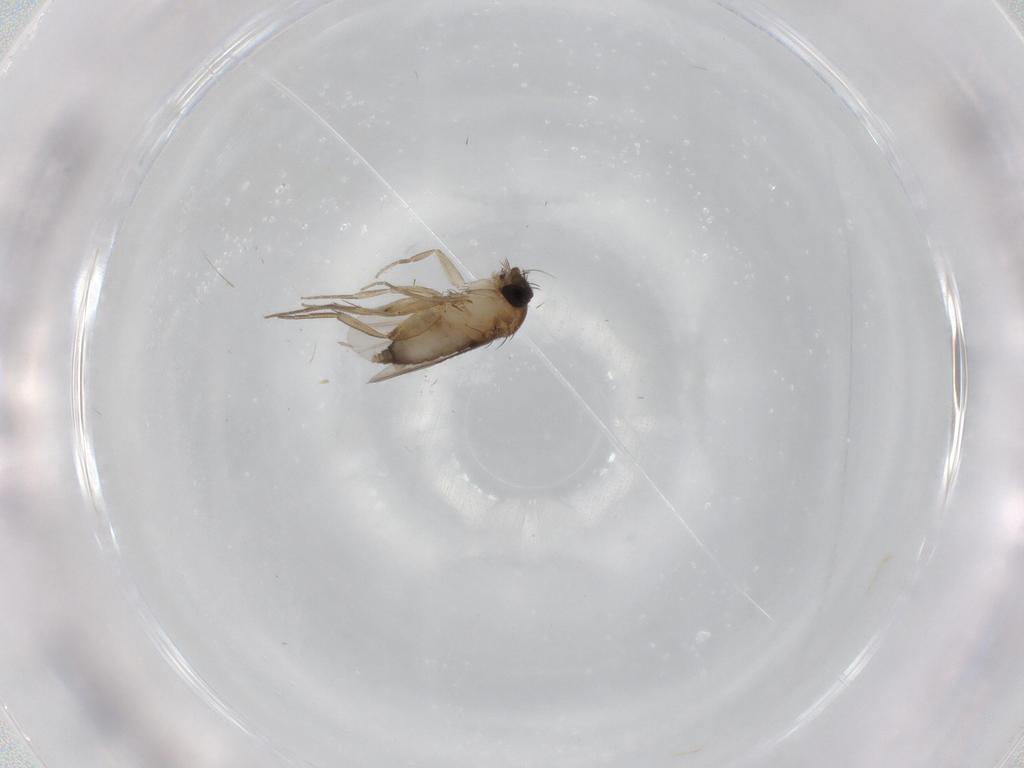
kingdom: Animalia
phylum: Arthropoda
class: Insecta
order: Diptera
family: Phoridae
